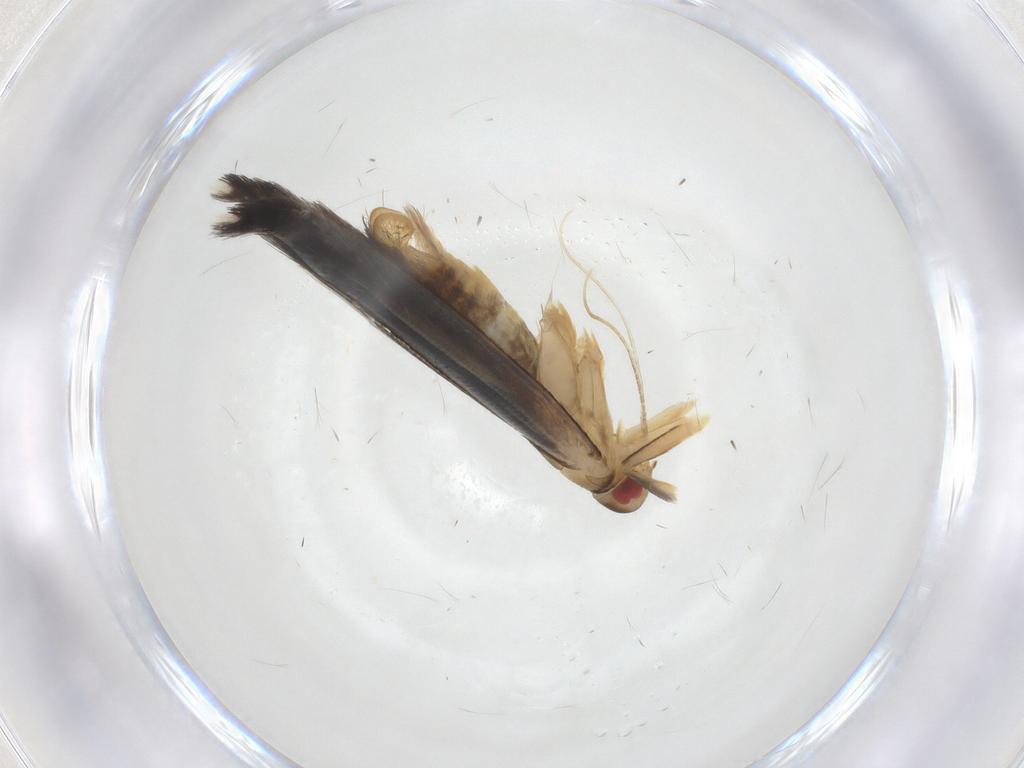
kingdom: Animalia
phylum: Arthropoda
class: Insecta
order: Lepidoptera
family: Cosmopterigidae
